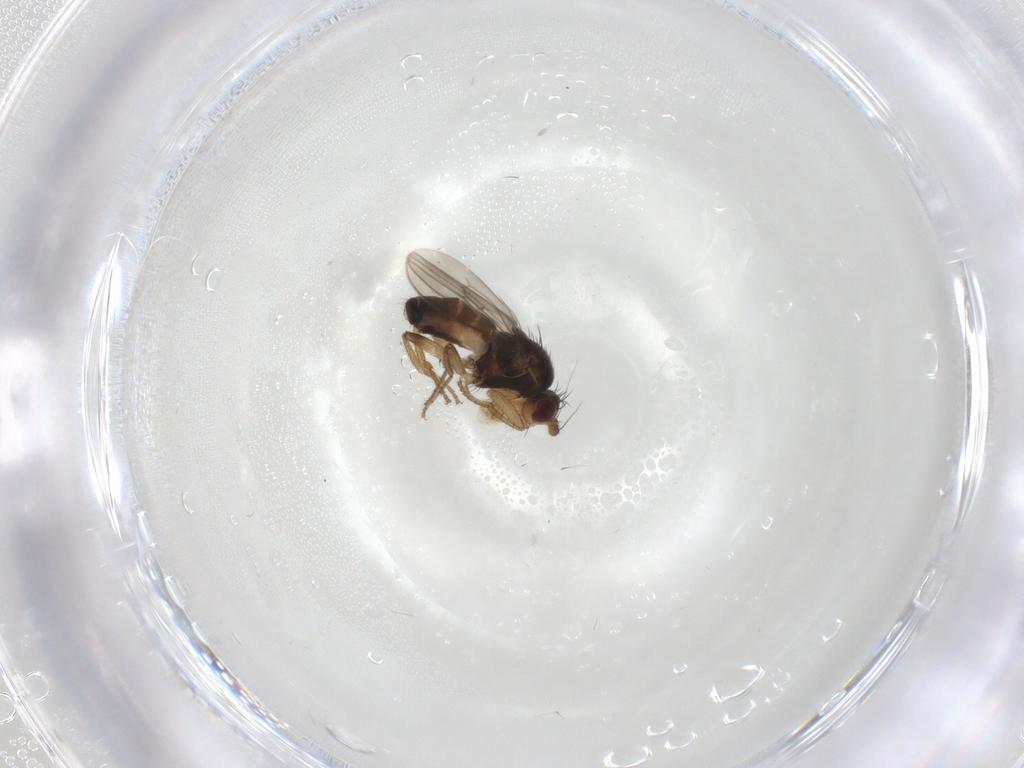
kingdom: Animalia
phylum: Arthropoda
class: Insecta
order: Diptera
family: Sphaeroceridae
